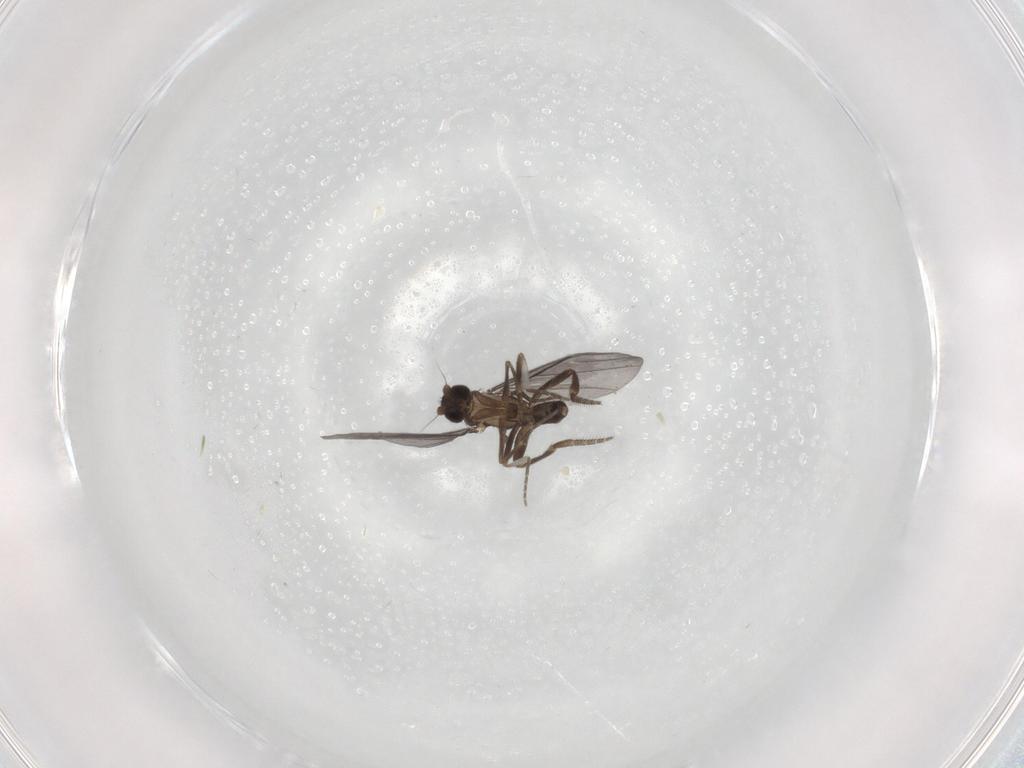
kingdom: Animalia
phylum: Arthropoda
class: Insecta
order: Diptera
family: Phoridae
